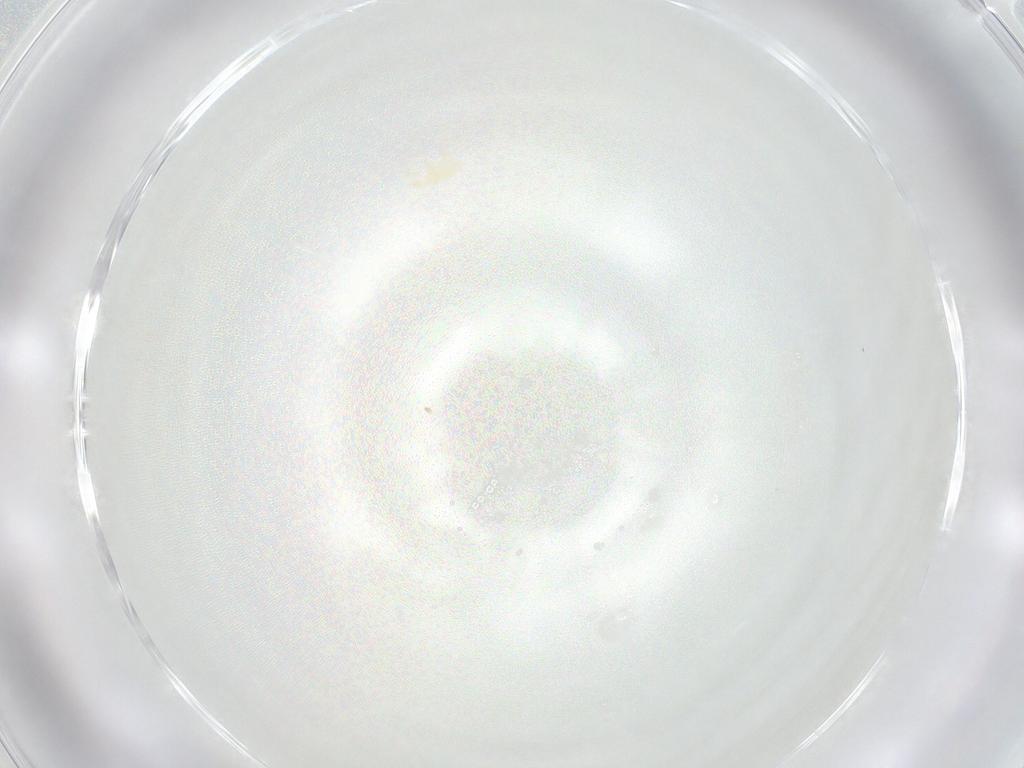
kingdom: Animalia
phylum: Arthropoda
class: Arachnida
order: Trombidiformes
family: Erythraeidae
